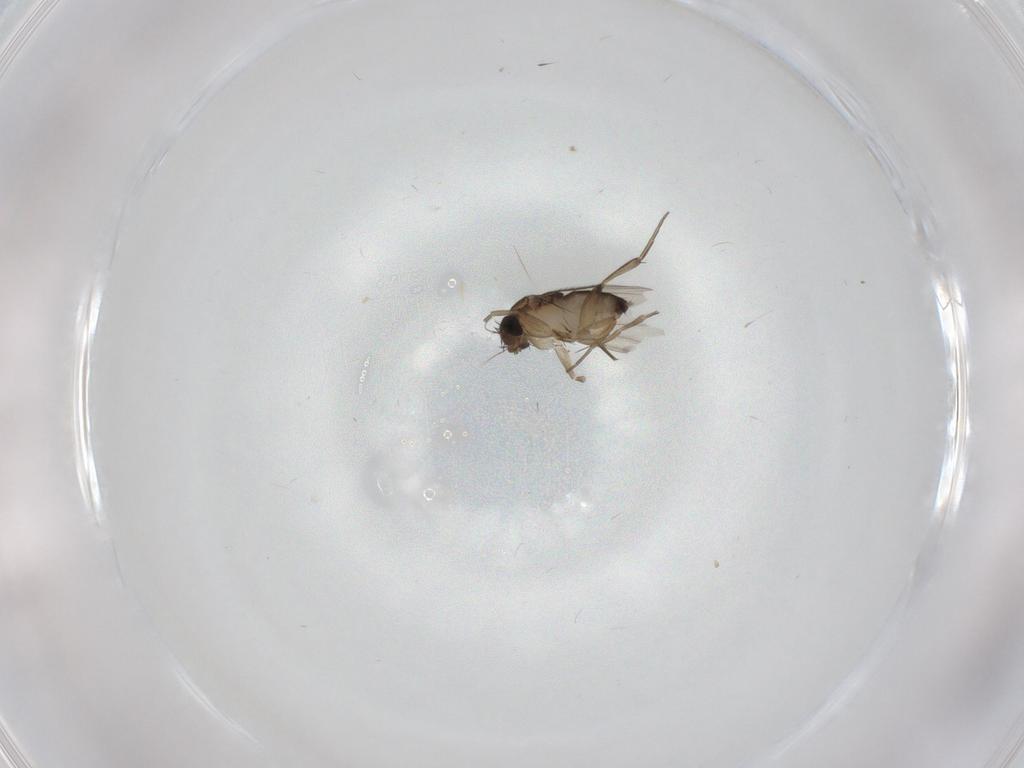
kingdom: Animalia
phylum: Arthropoda
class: Insecta
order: Diptera
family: Phoridae
